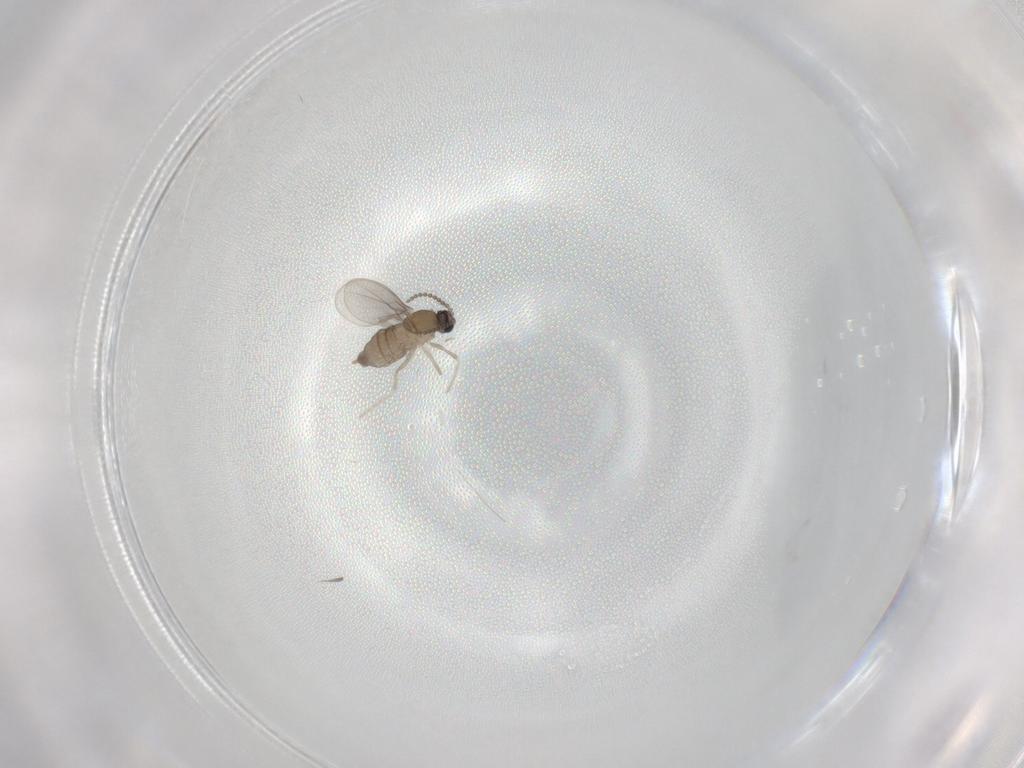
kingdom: Animalia
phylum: Arthropoda
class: Insecta
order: Diptera
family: Cecidomyiidae
